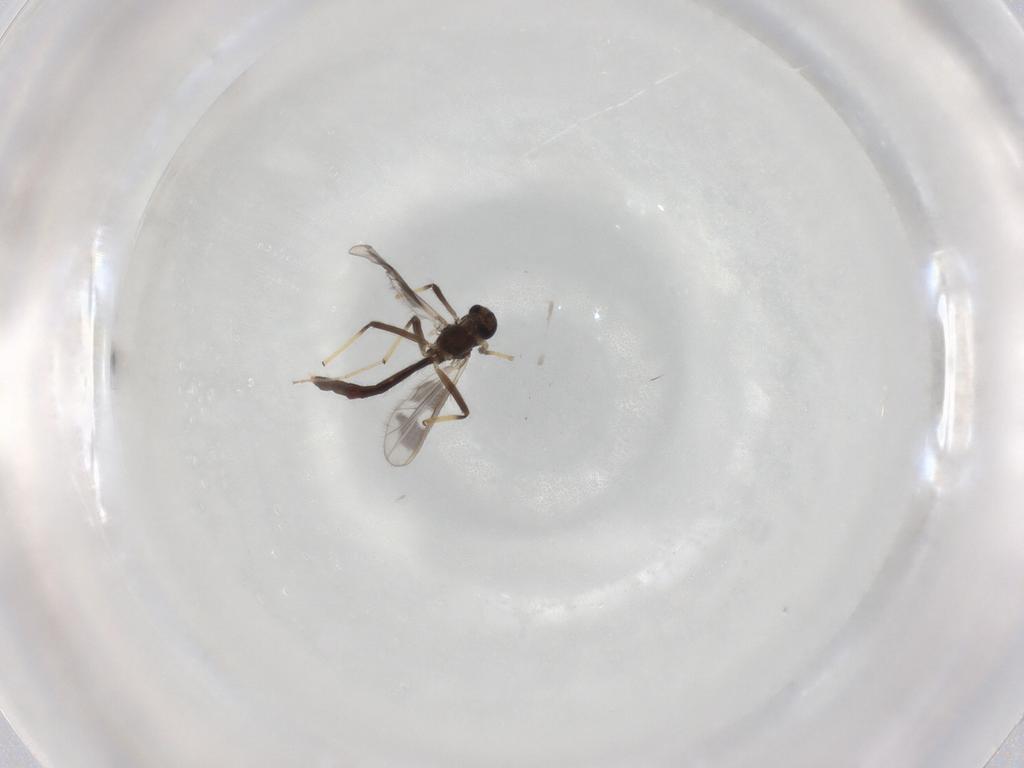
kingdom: Animalia
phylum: Arthropoda
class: Insecta
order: Diptera
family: Chironomidae
